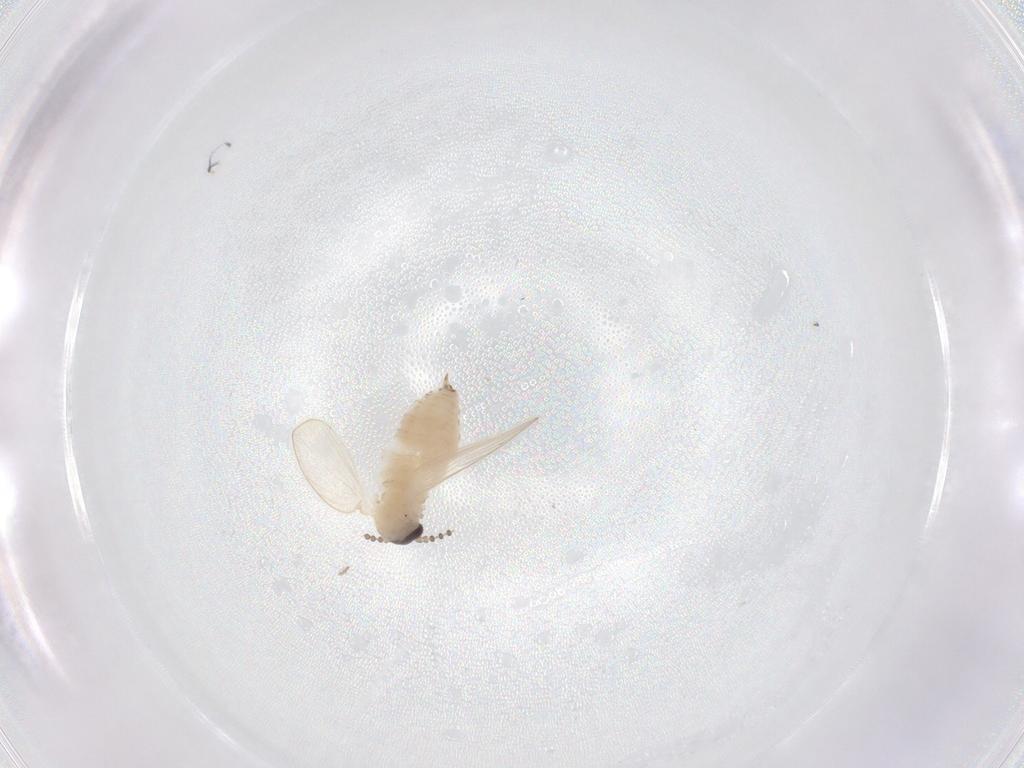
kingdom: Animalia
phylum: Arthropoda
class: Insecta
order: Diptera
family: Psychodidae
